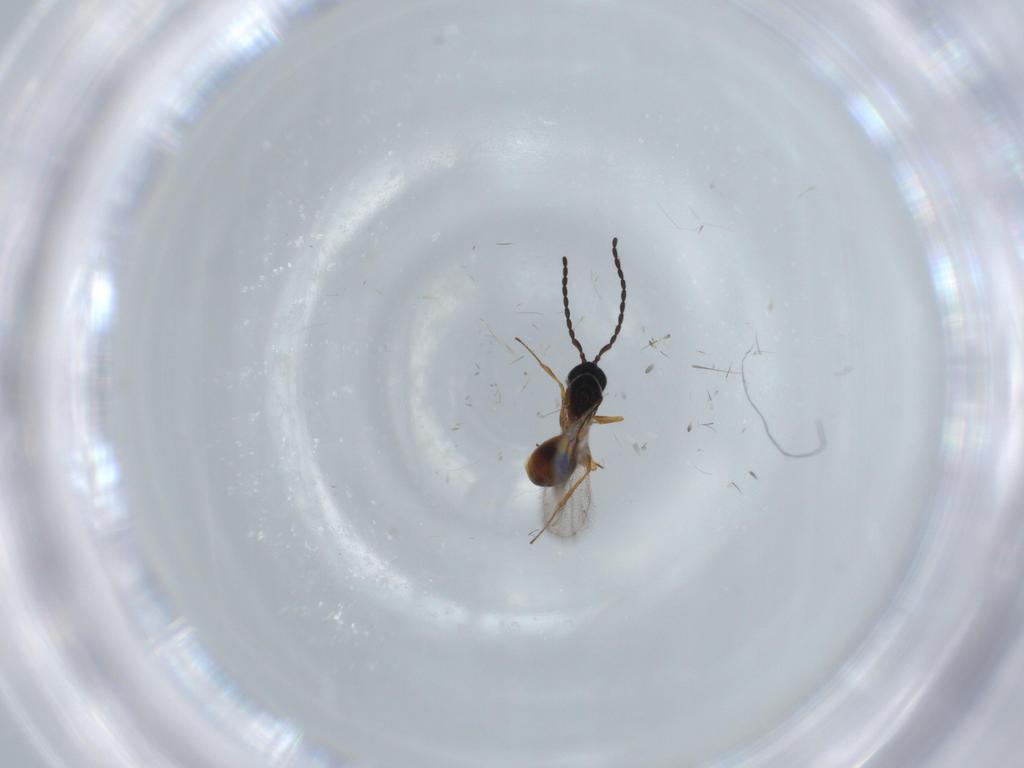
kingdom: Animalia
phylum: Arthropoda
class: Insecta
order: Hymenoptera
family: Figitidae
